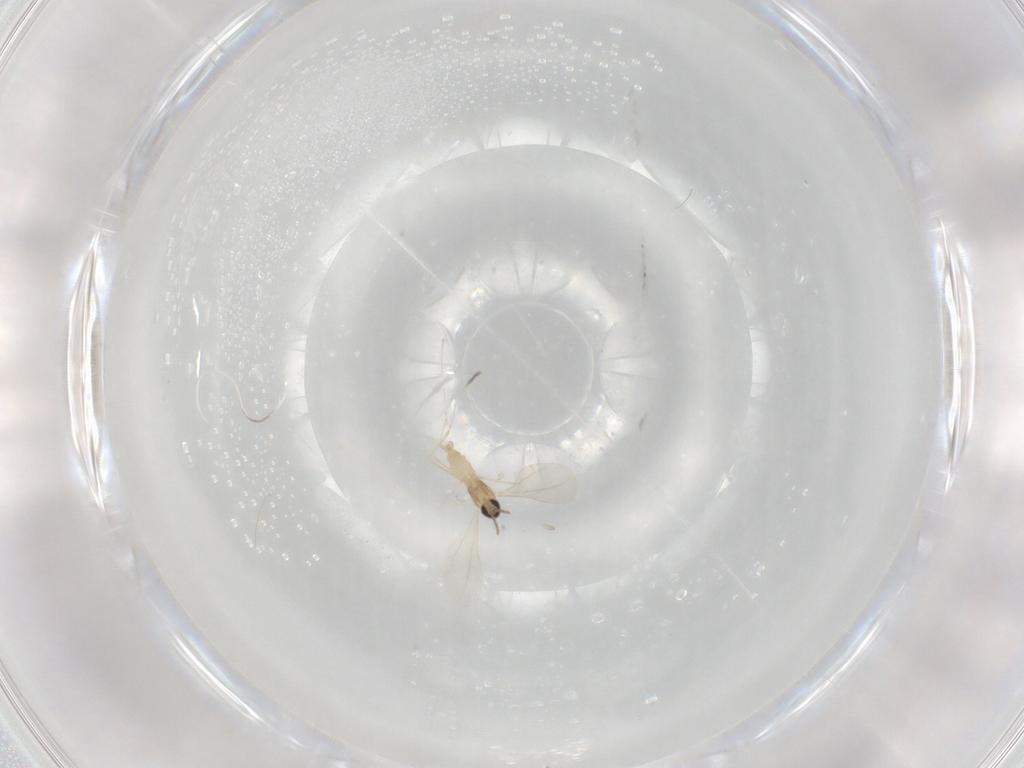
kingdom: Animalia
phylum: Arthropoda
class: Insecta
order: Diptera
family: Cecidomyiidae
